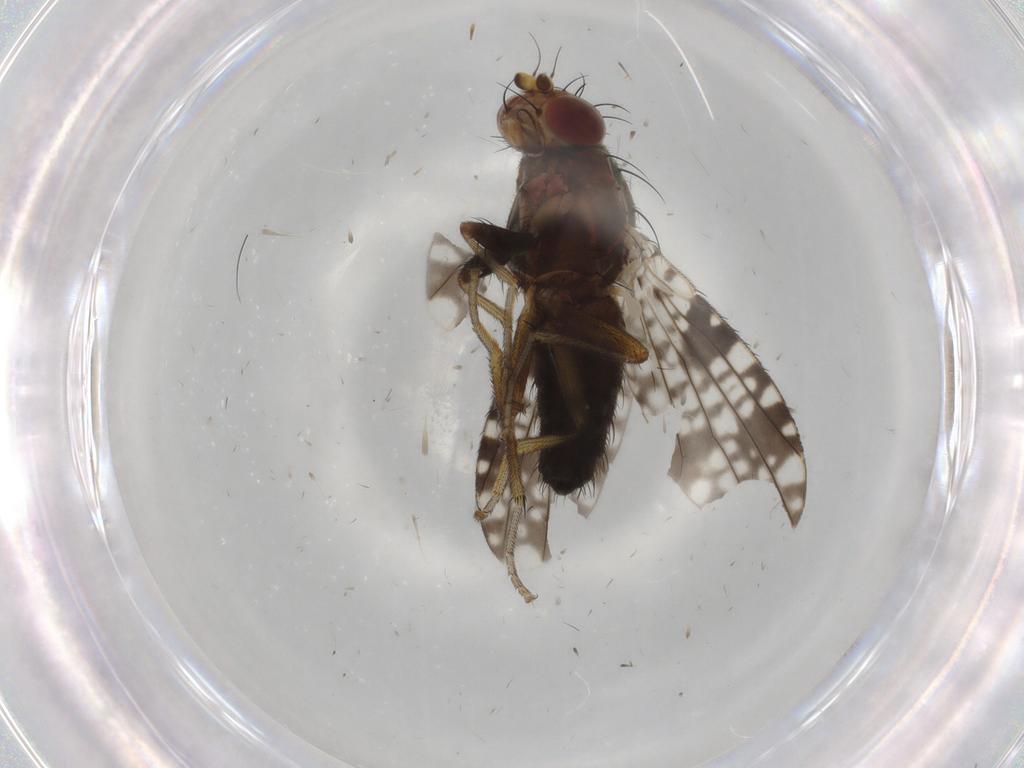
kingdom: Animalia
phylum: Arthropoda
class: Insecta
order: Diptera
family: Tephritidae
